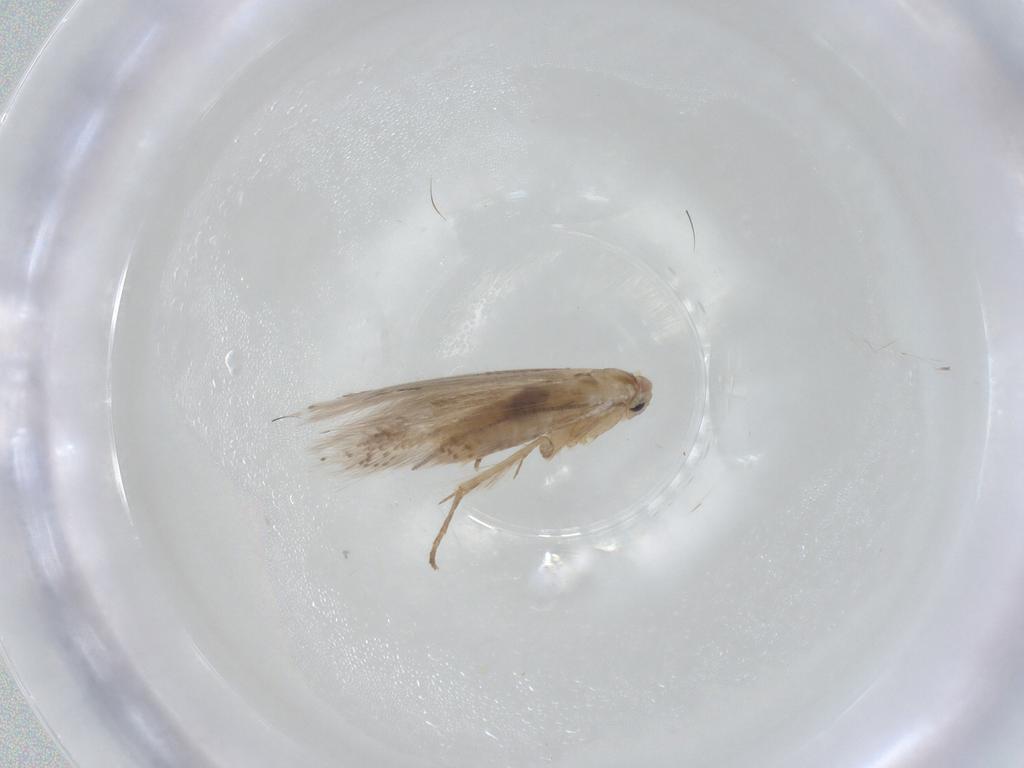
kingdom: Animalia
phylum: Arthropoda
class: Insecta
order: Lepidoptera
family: Bucculatricidae
